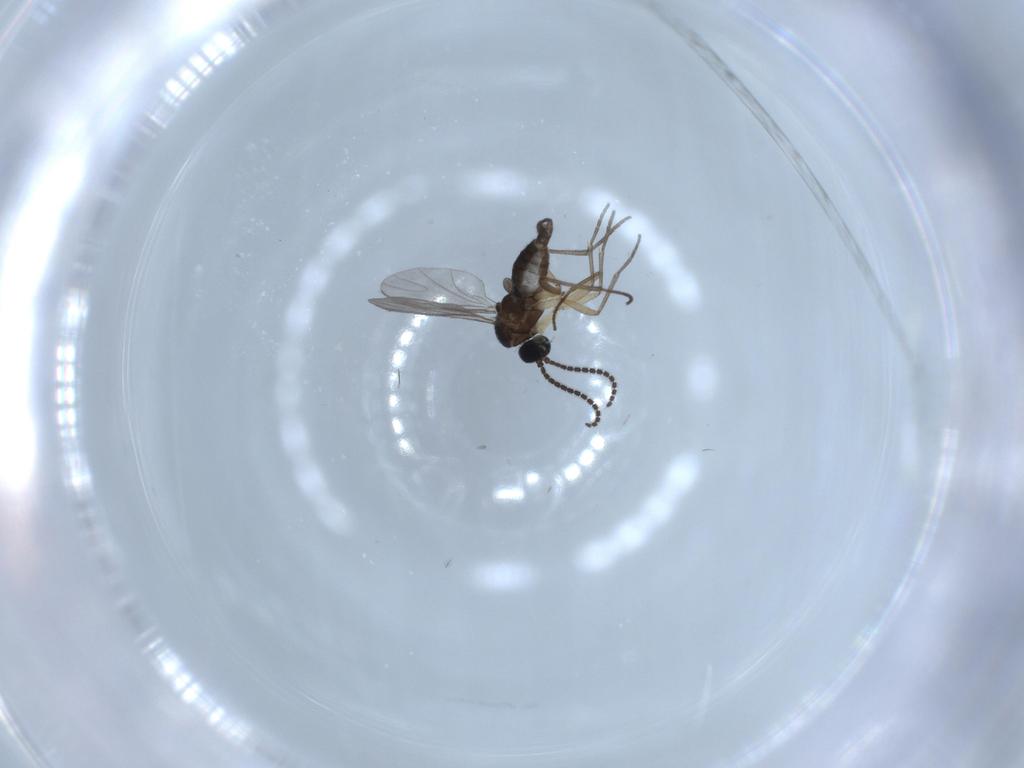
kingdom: Animalia
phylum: Arthropoda
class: Insecta
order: Diptera
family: Sciaridae
